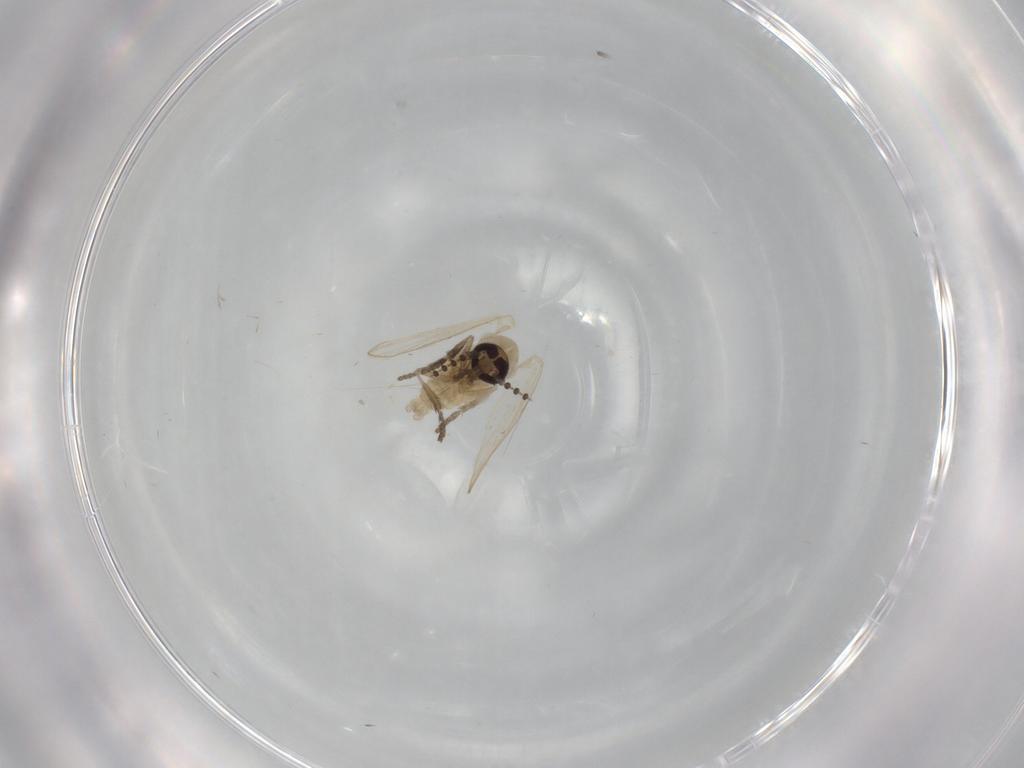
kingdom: Animalia
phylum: Arthropoda
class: Insecta
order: Diptera
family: Psychodidae
